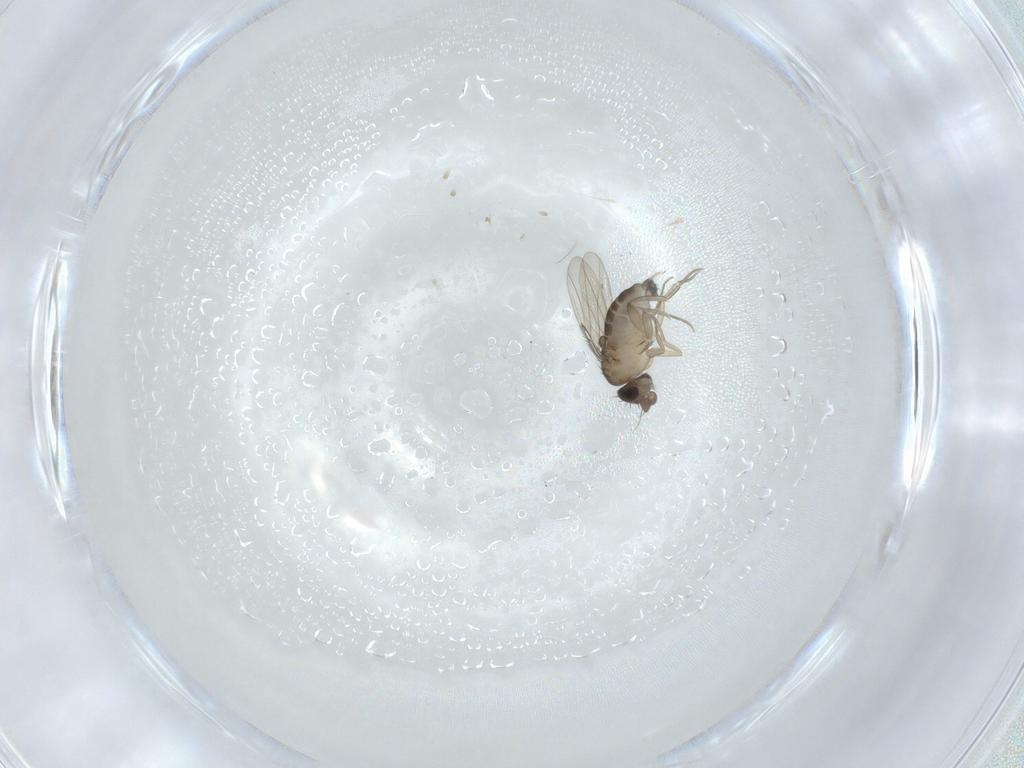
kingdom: Animalia
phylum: Arthropoda
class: Insecta
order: Diptera
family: Phoridae
